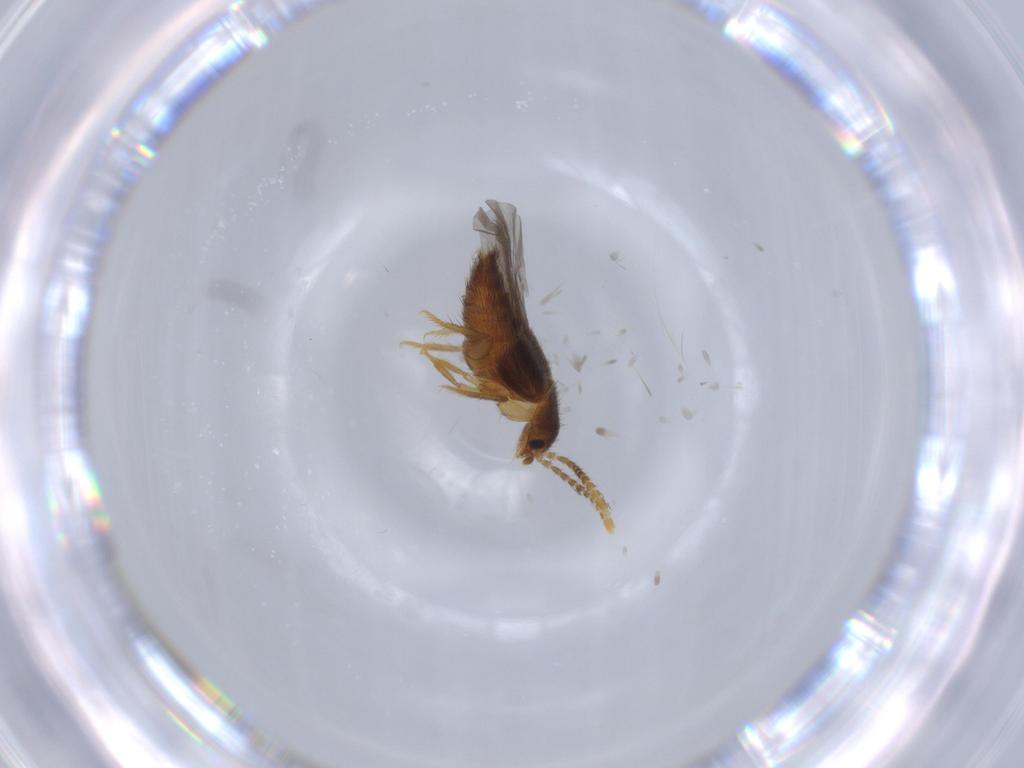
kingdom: Animalia
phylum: Arthropoda
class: Insecta
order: Coleoptera
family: Staphylinidae
